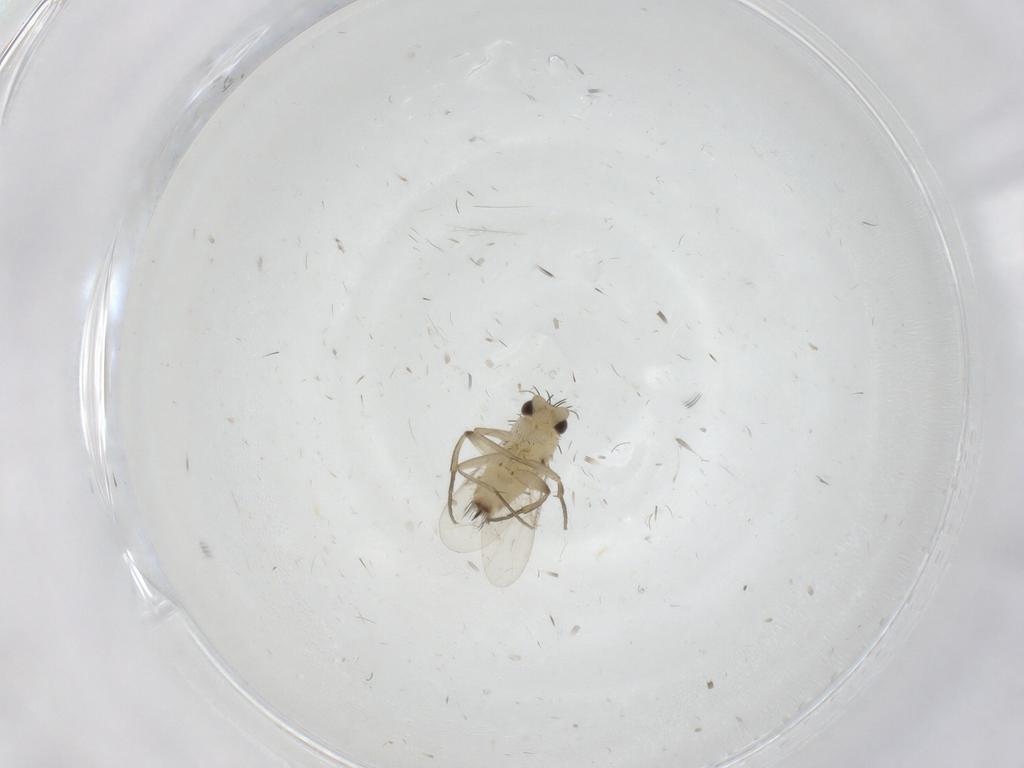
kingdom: Animalia
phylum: Arthropoda
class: Insecta
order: Diptera
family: Phoridae
